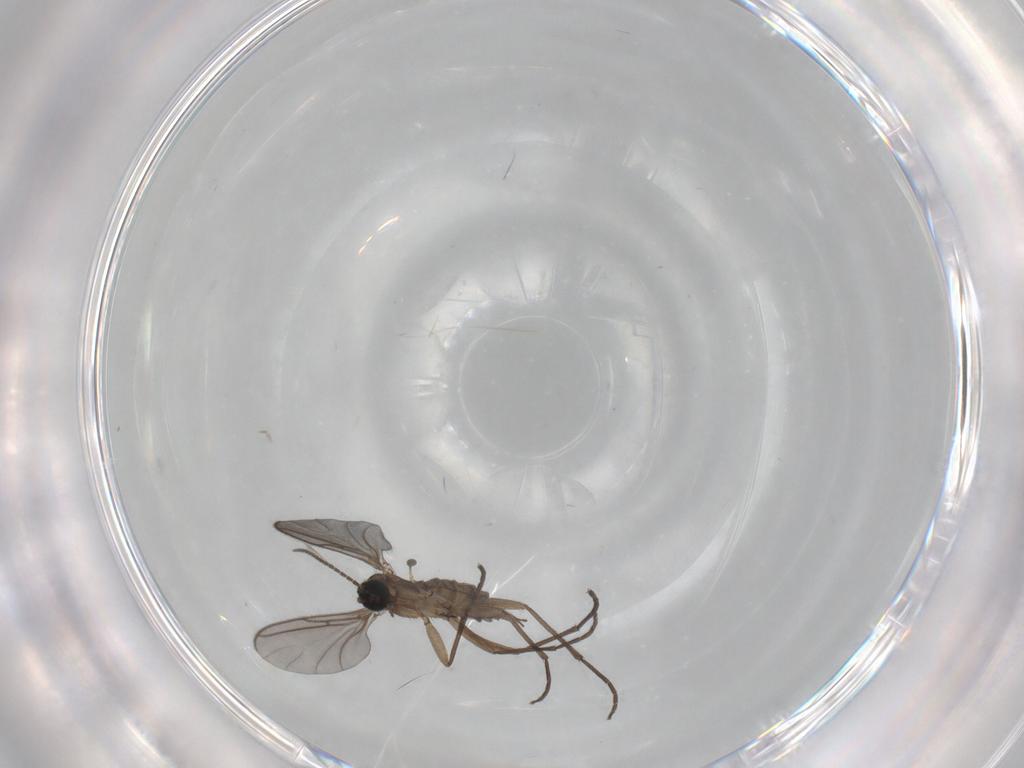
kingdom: Animalia
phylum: Arthropoda
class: Insecta
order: Diptera
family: Sciaridae
